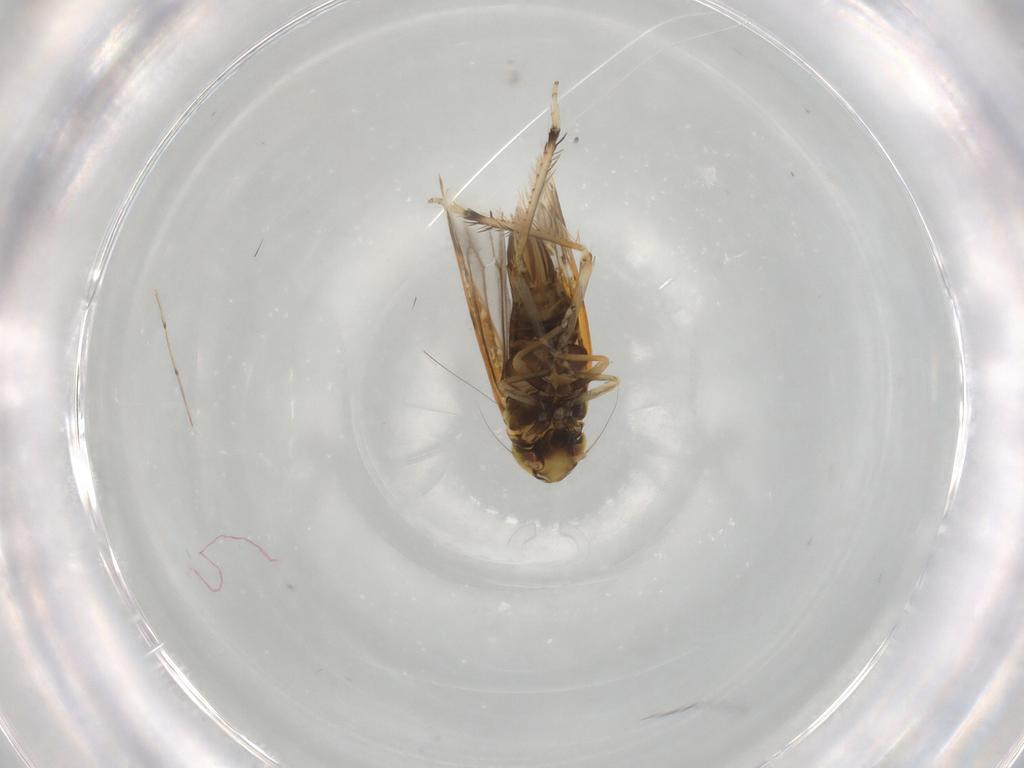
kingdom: Animalia
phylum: Arthropoda
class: Insecta
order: Hemiptera
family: Cicadellidae
